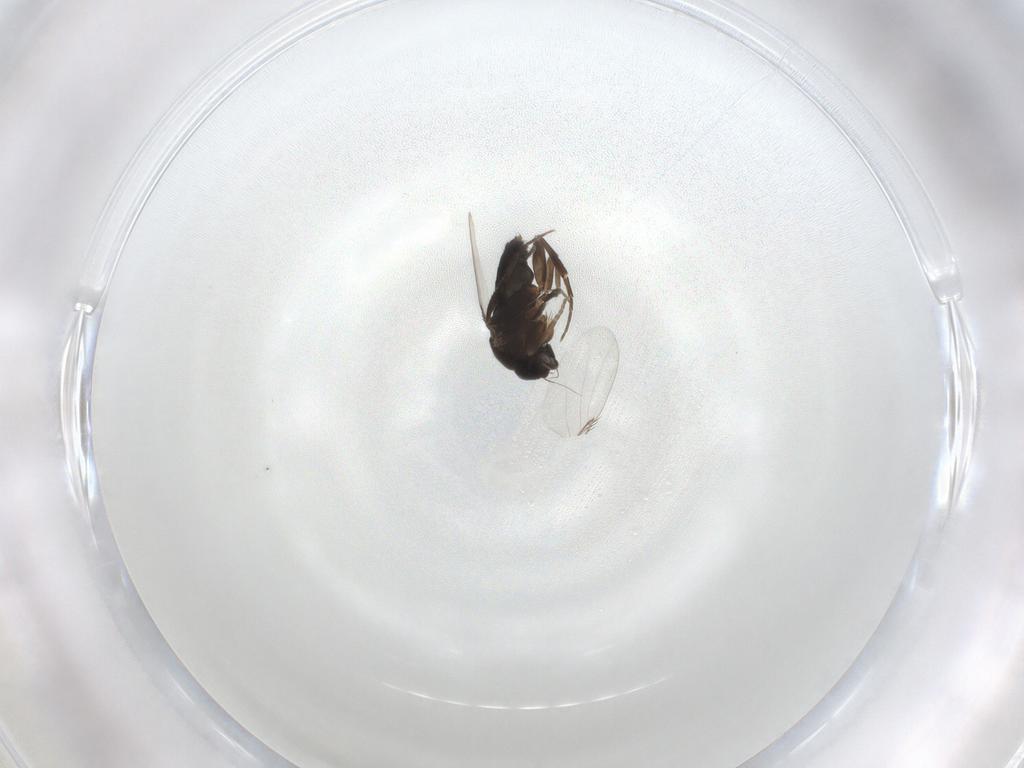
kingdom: Animalia
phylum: Arthropoda
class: Insecta
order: Diptera
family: Phoridae
